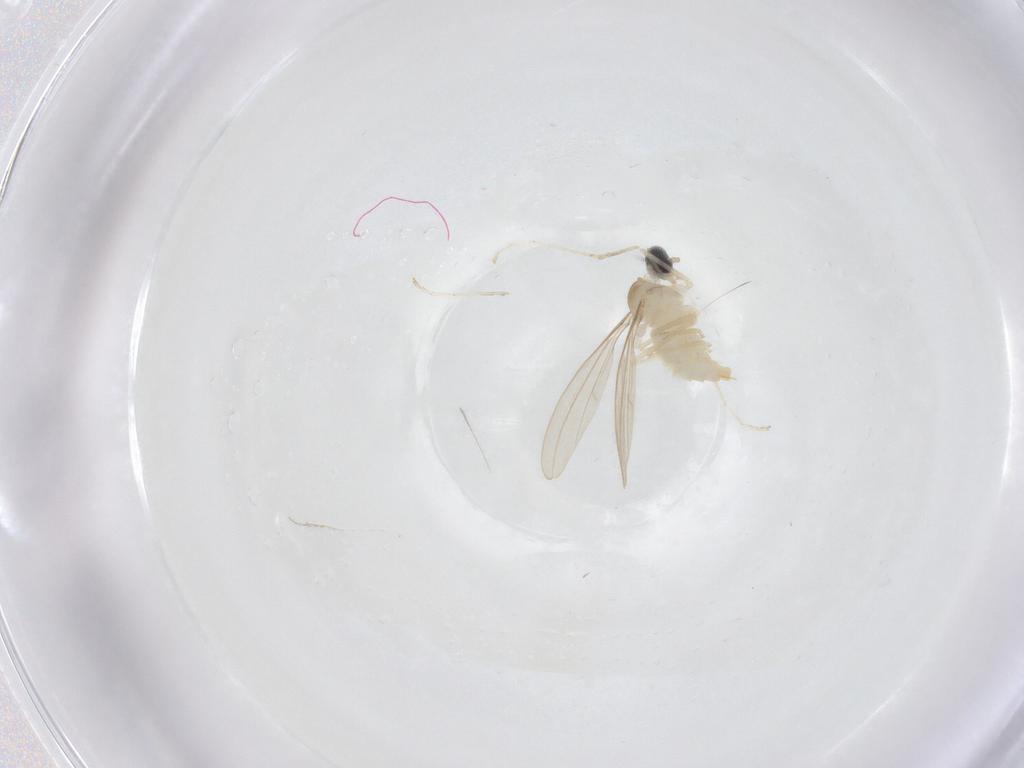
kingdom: Animalia
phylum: Arthropoda
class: Insecta
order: Diptera
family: Cecidomyiidae
